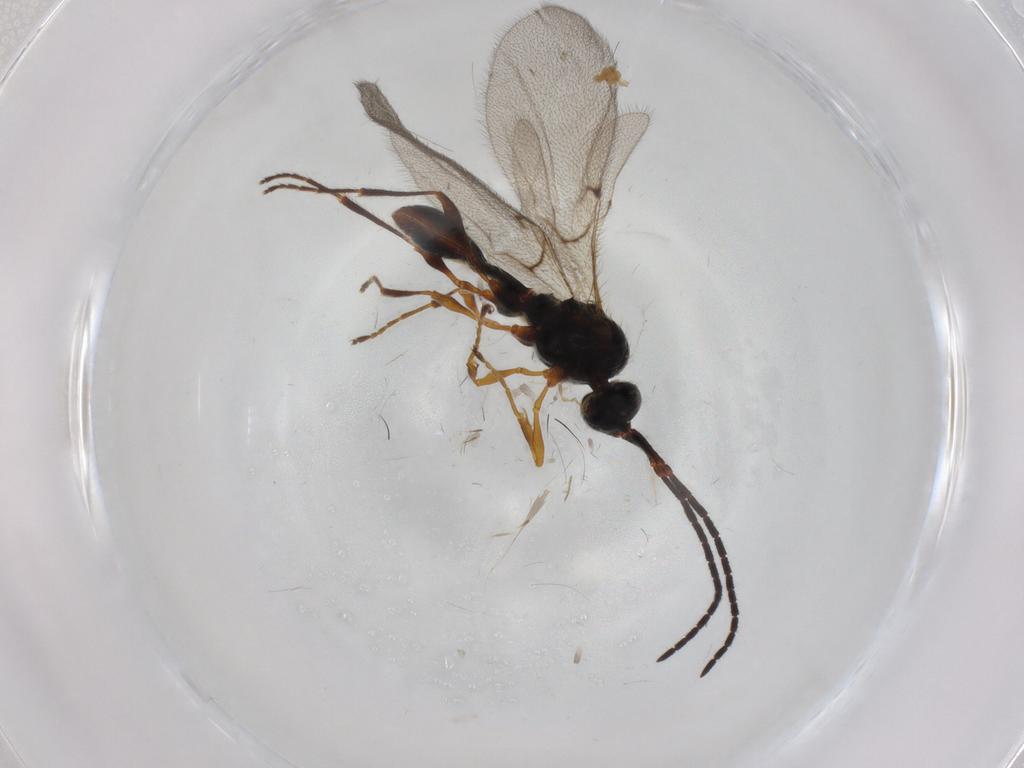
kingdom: Animalia
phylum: Arthropoda
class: Insecta
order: Hymenoptera
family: Diapriidae
